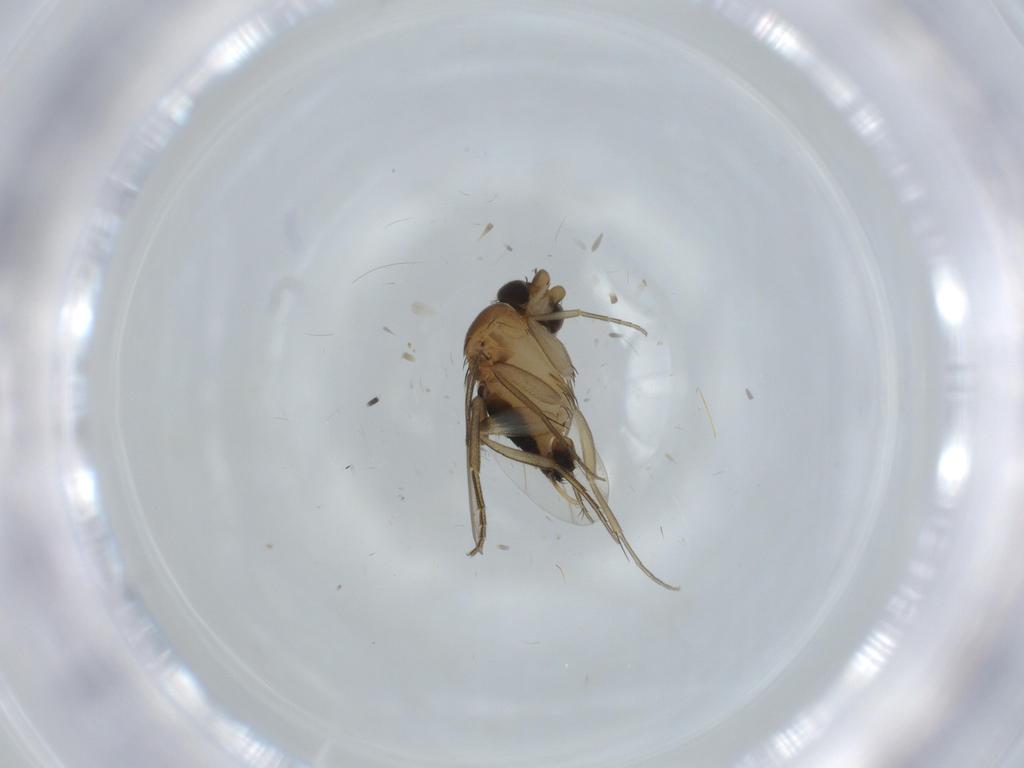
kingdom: Animalia
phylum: Arthropoda
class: Insecta
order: Diptera
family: Phoridae
